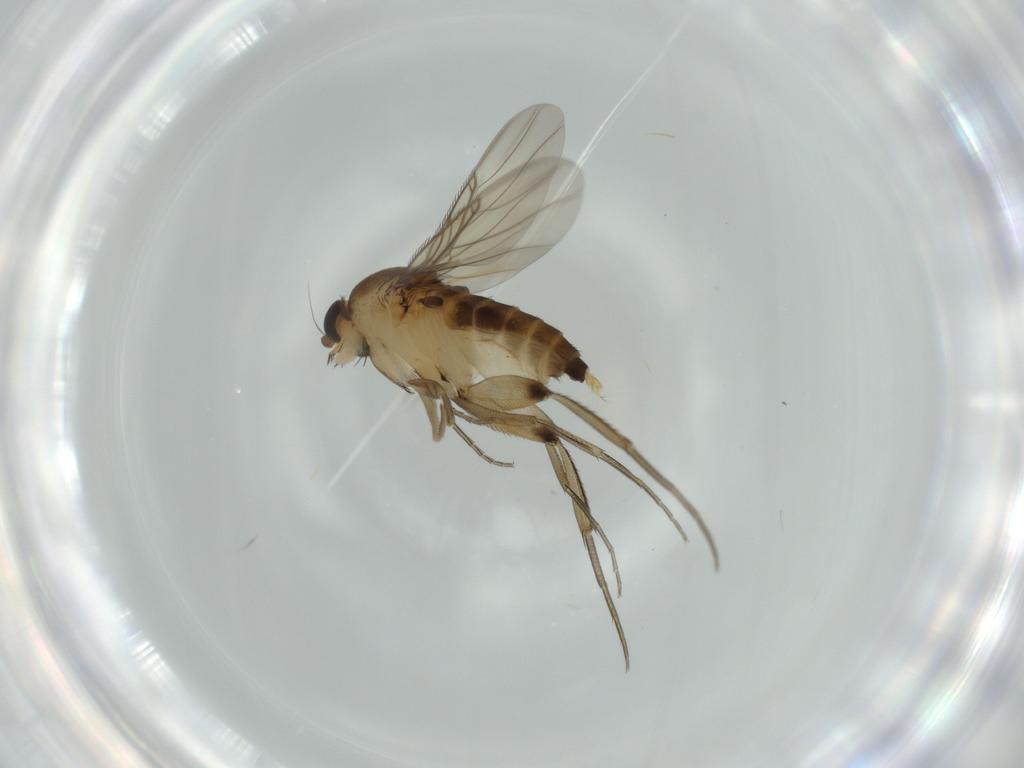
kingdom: Animalia
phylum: Arthropoda
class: Insecta
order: Diptera
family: Phoridae
